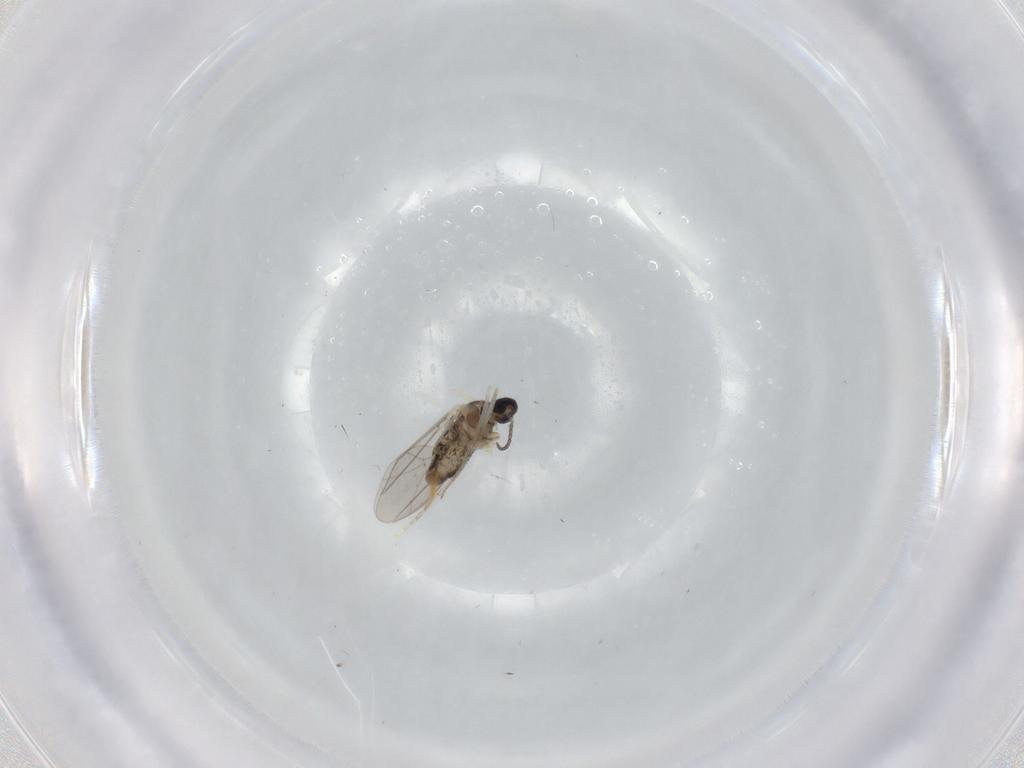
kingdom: Animalia
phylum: Arthropoda
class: Insecta
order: Diptera
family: Cecidomyiidae
